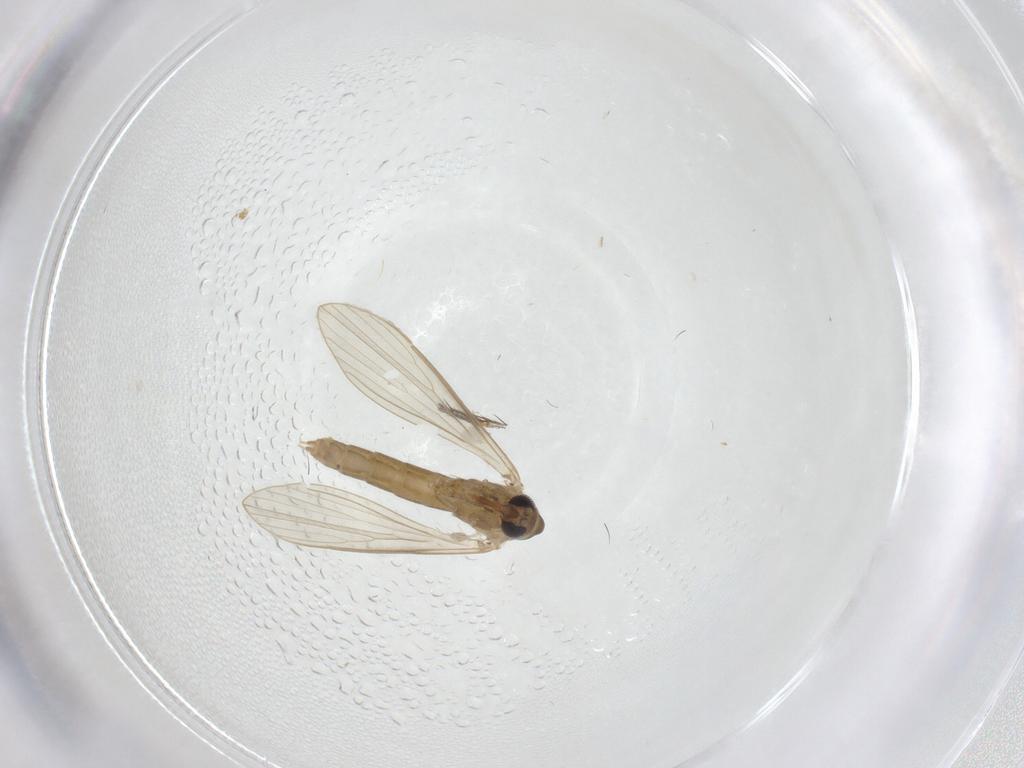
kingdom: Animalia
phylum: Arthropoda
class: Insecta
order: Diptera
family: Psychodidae
